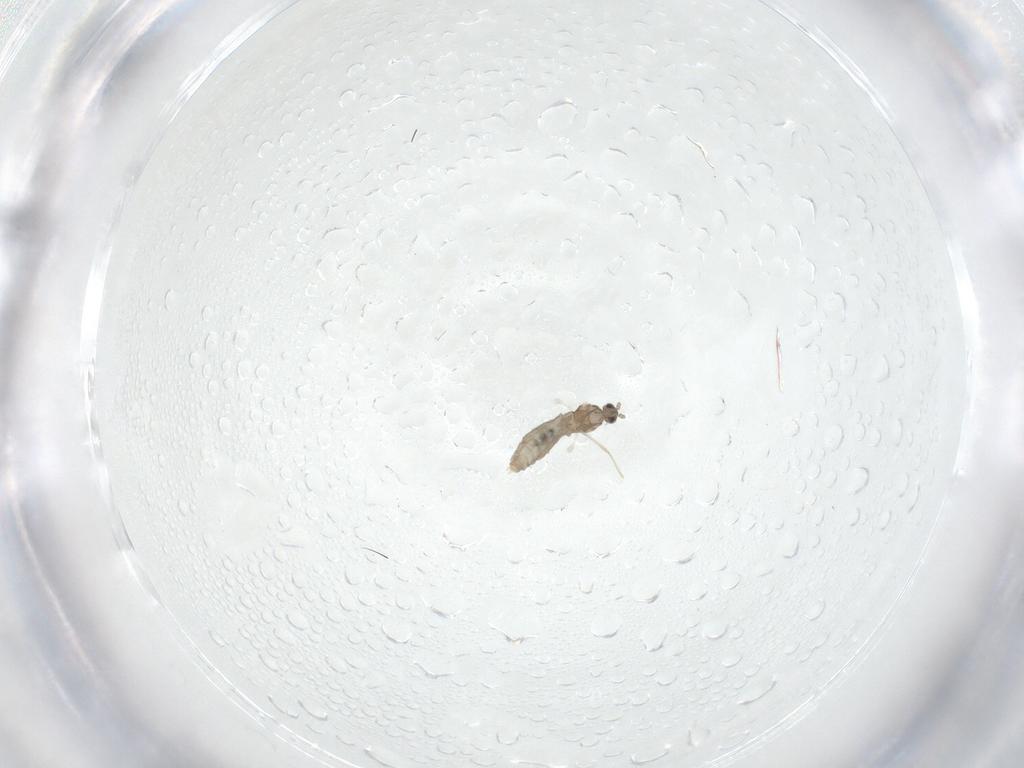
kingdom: Animalia
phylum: Arthropoda
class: Insecta
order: Diptera
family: Cecidomyiidae
